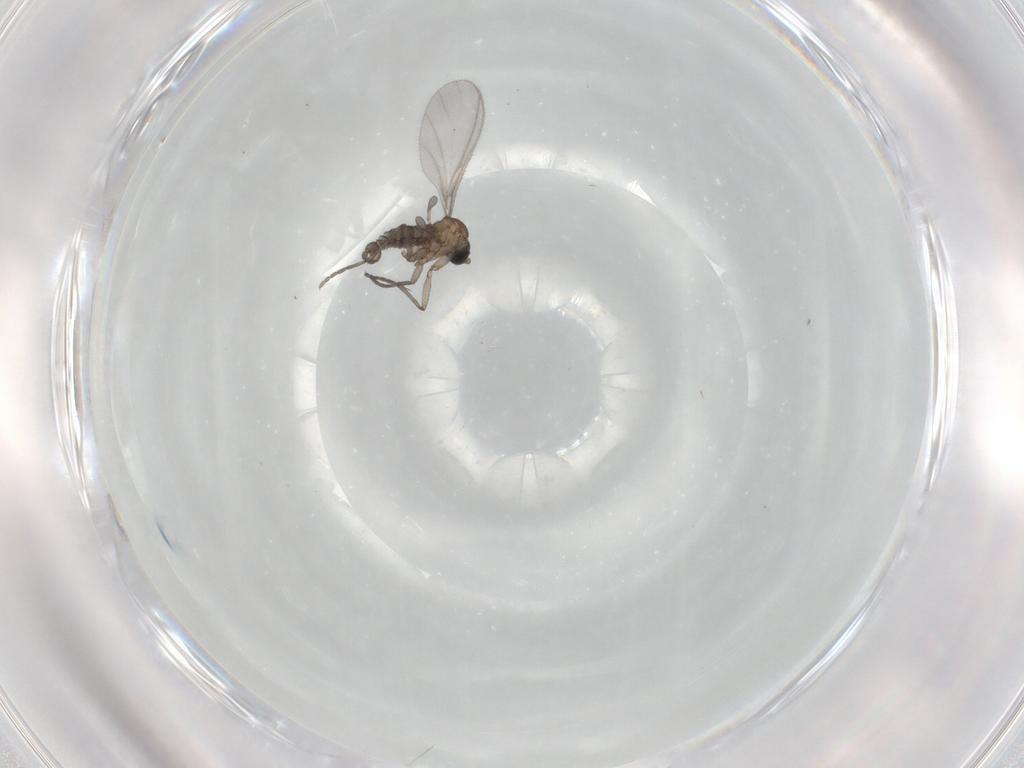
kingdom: Animalia
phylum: Arthropoda
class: Insecta
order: Diptera
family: Sciaridae
